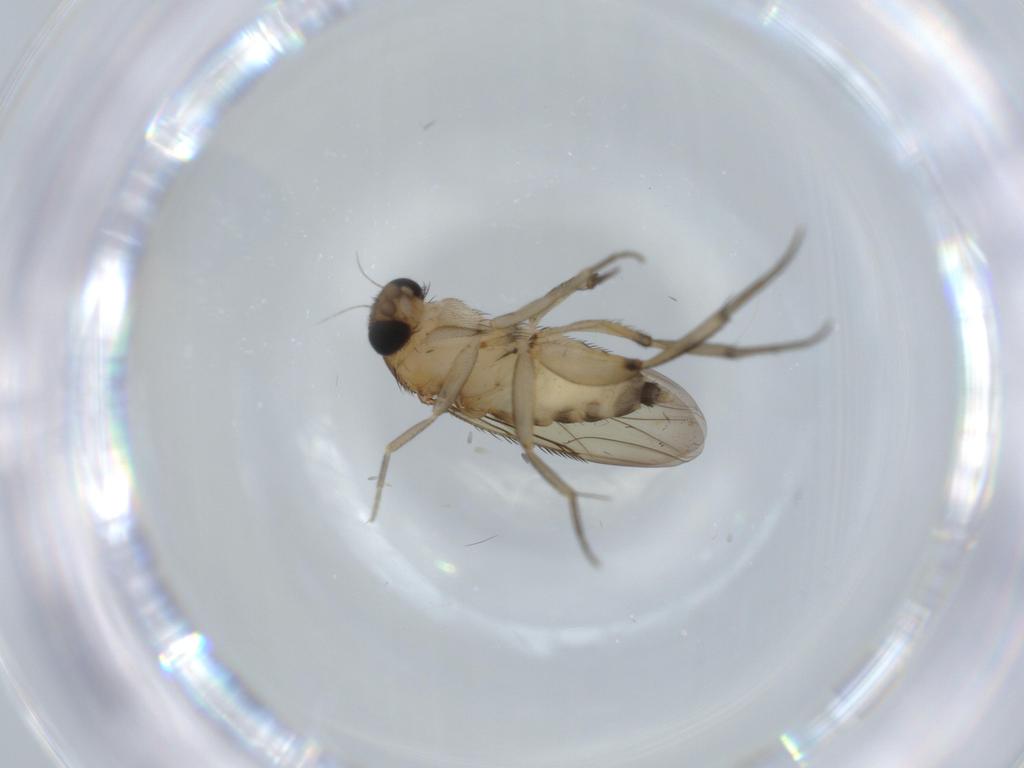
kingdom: Animalia
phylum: Arthropoda
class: Insecta
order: Diptera
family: Phoridae
